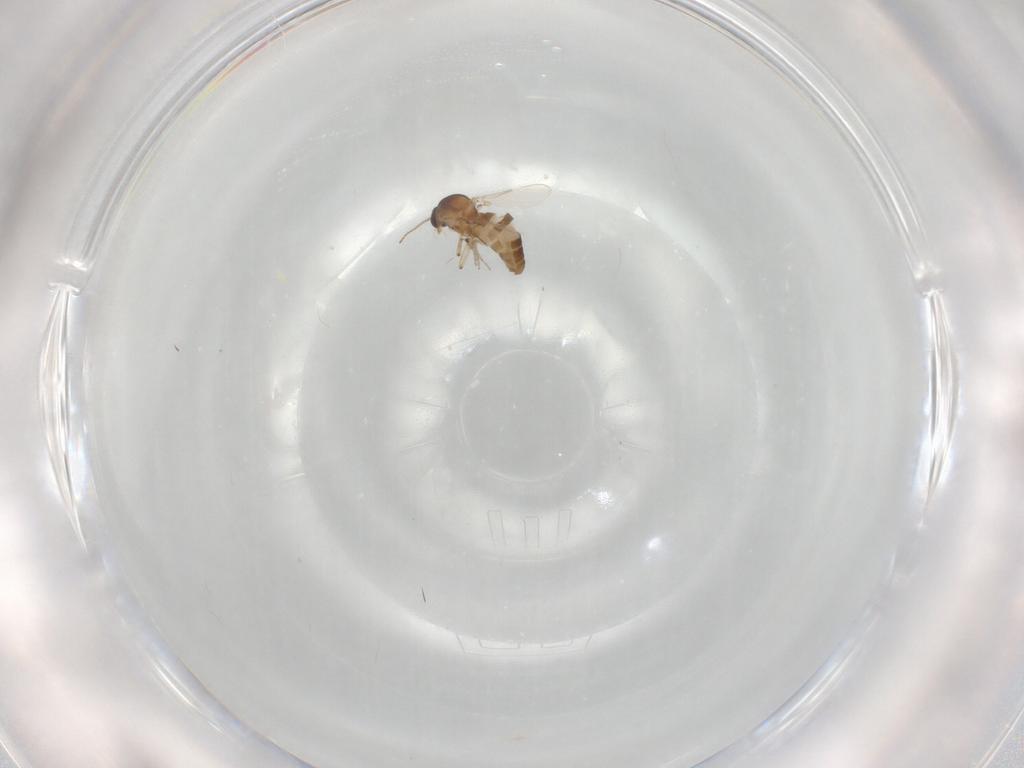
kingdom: Animalia
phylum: Arthropoda
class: Insecta
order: Diptera
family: Ceratopogonidae
